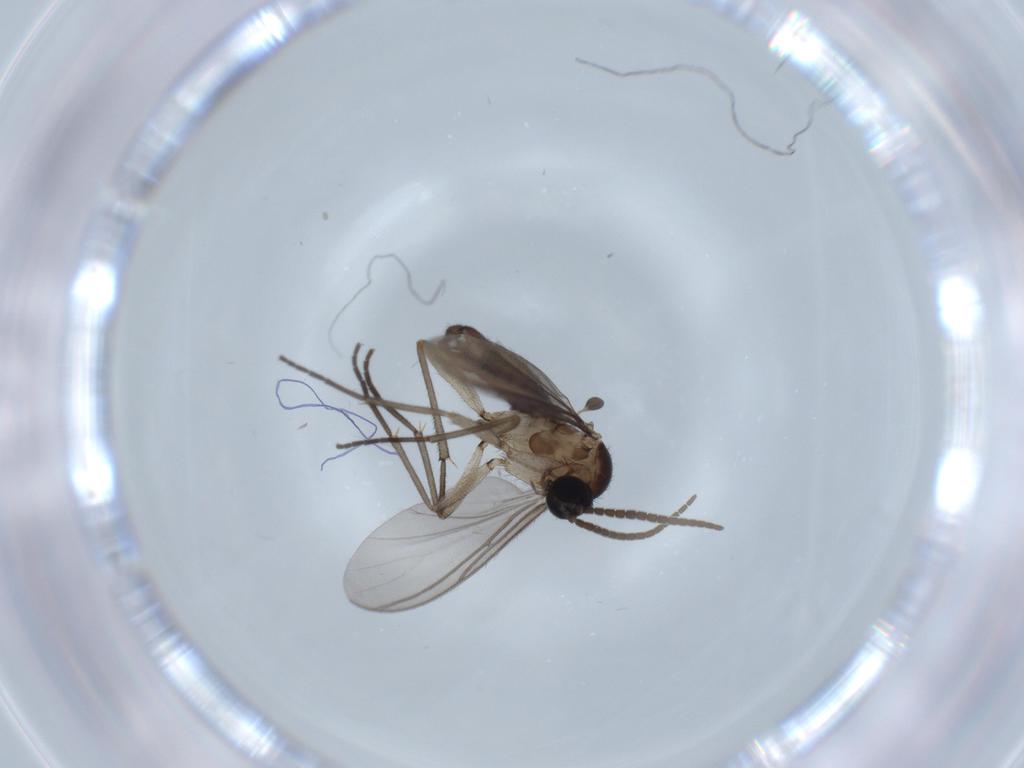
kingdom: Animalia
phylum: Arthropoda
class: Insecta
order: Diptera
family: Sciaridae
